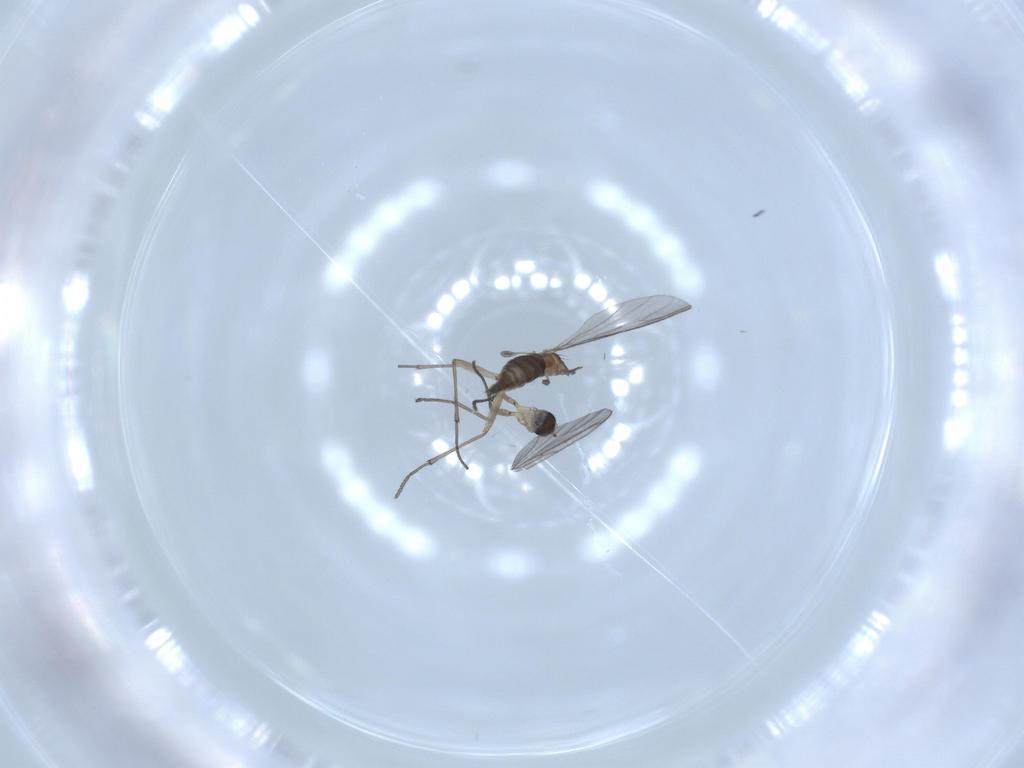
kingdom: Animalia
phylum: Arthropoda
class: Insecta
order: Diptera
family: Sciaridae
